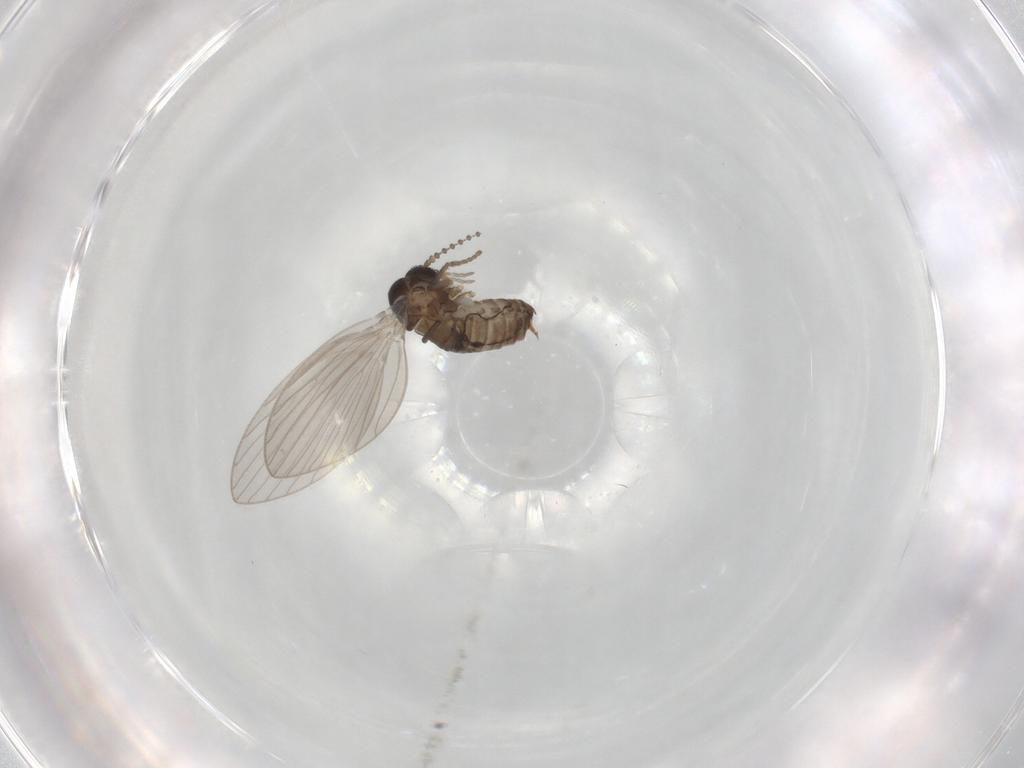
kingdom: Animalia
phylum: Arthropoda
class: Insecta
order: Diptera
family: Psychodidae
